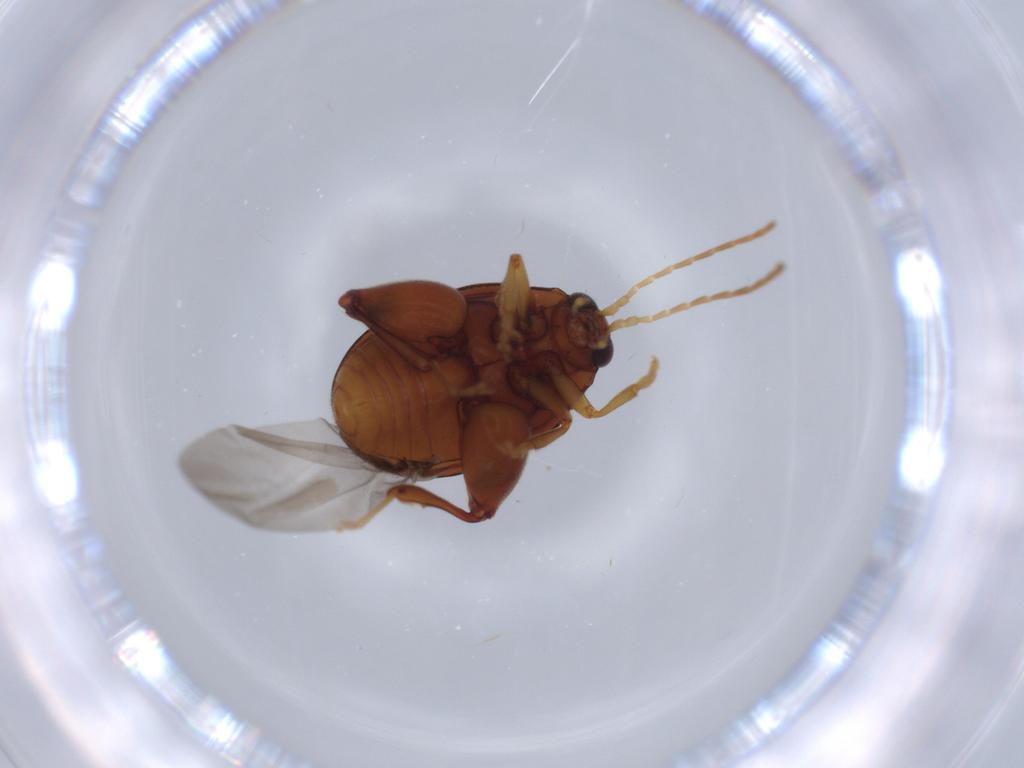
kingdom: Animalia
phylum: Arthropoda
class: Insecta
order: Coleoptera
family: Chrysomelidae
